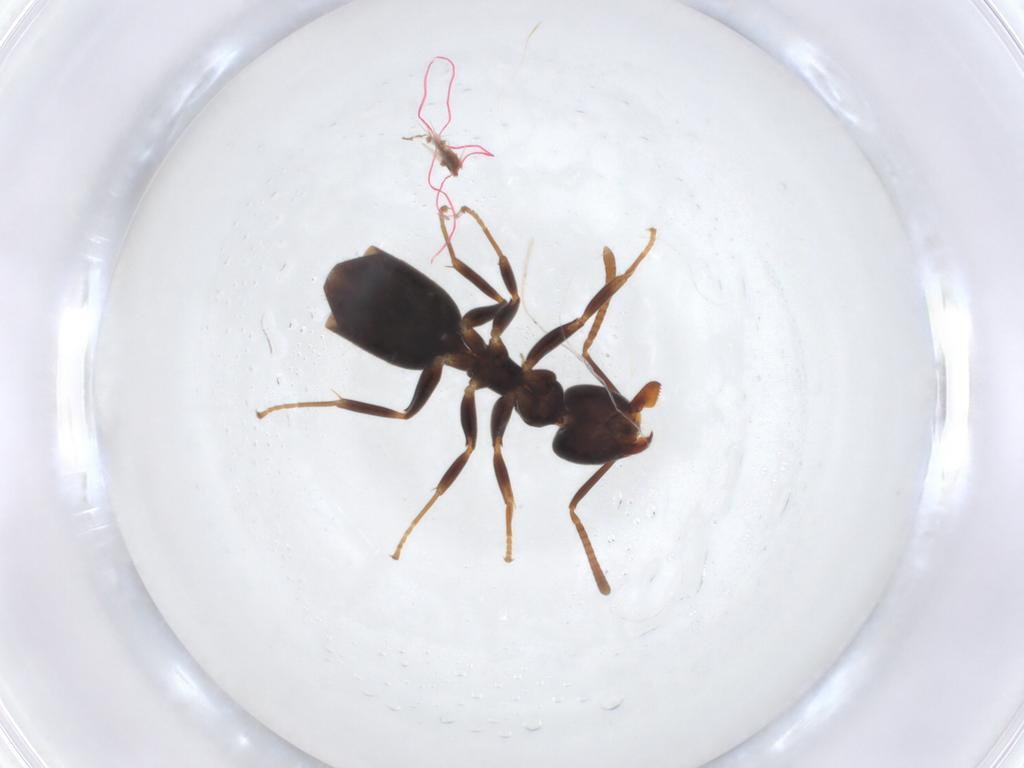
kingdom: Animalia
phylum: Arthropoda
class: Insecta
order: Hymenoptera
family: Formicidae
